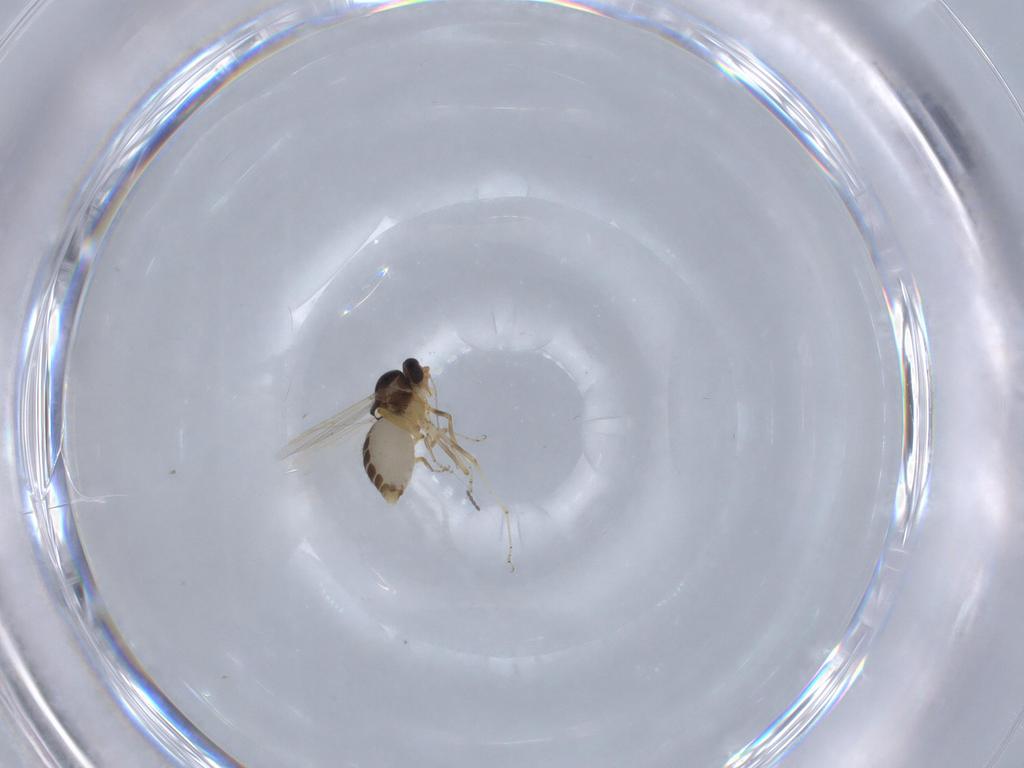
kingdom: Animalia
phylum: Arthropoda
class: Insecta
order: Diptera
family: Ceratopogonidae
